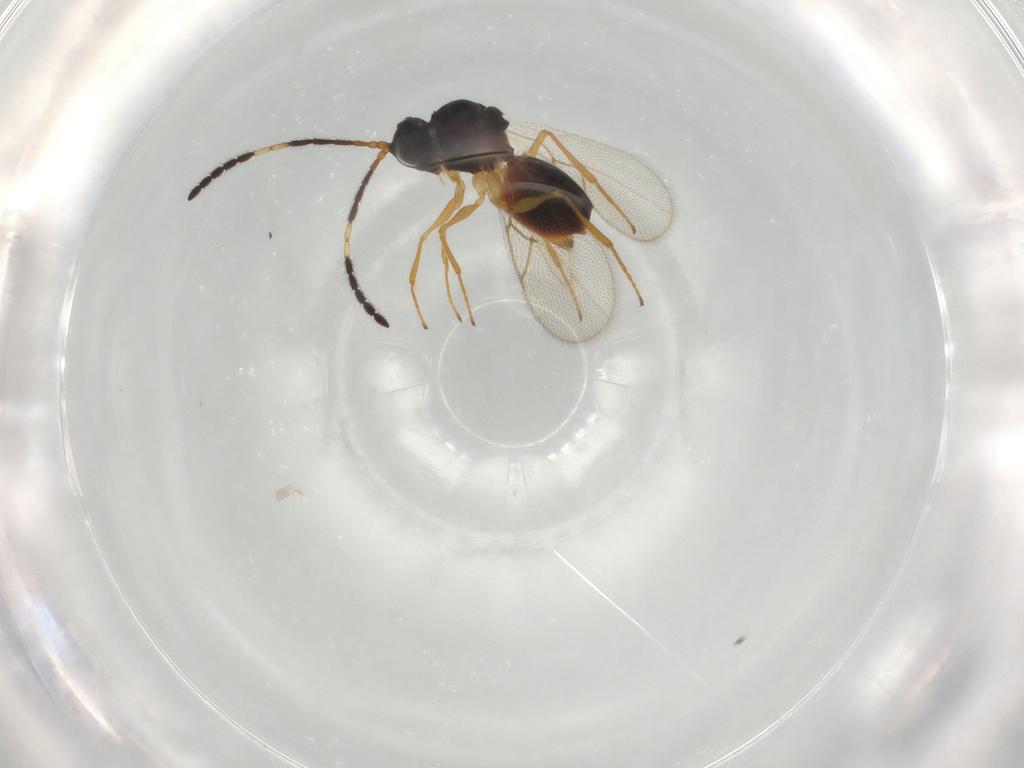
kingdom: Animalia
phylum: Arthropoda
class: Insecta
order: Hymenoptera
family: Figitidae
